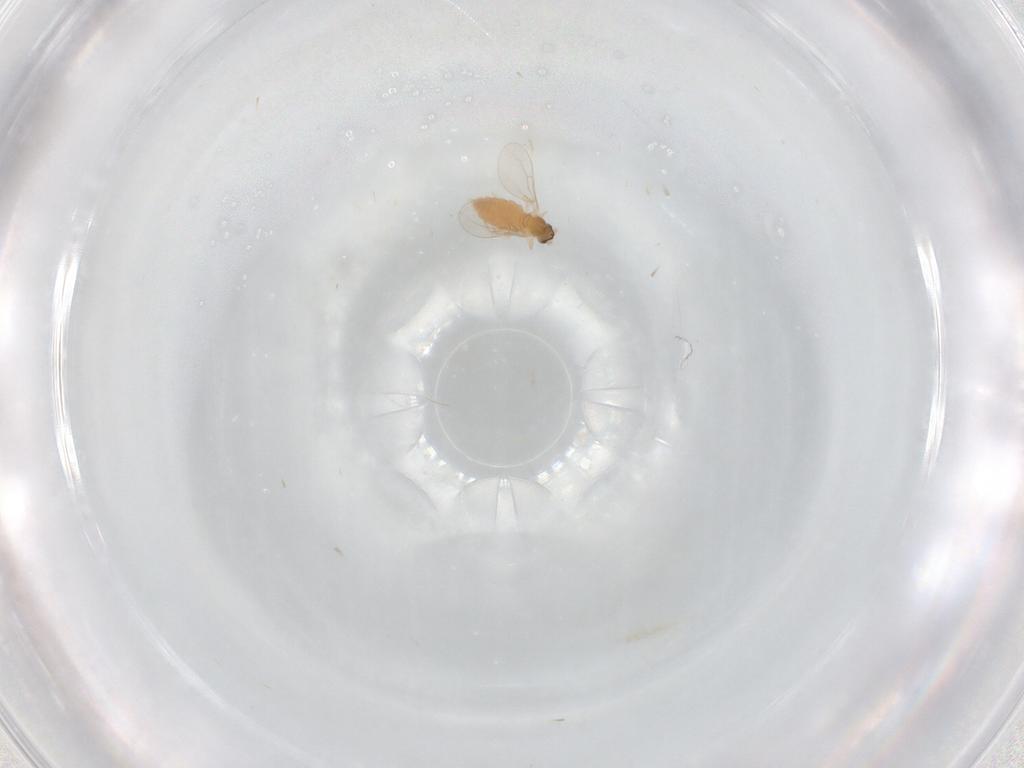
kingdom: Animalia
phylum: Arthropoda
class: Insecta
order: Diptera
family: Cecidomyiidae
